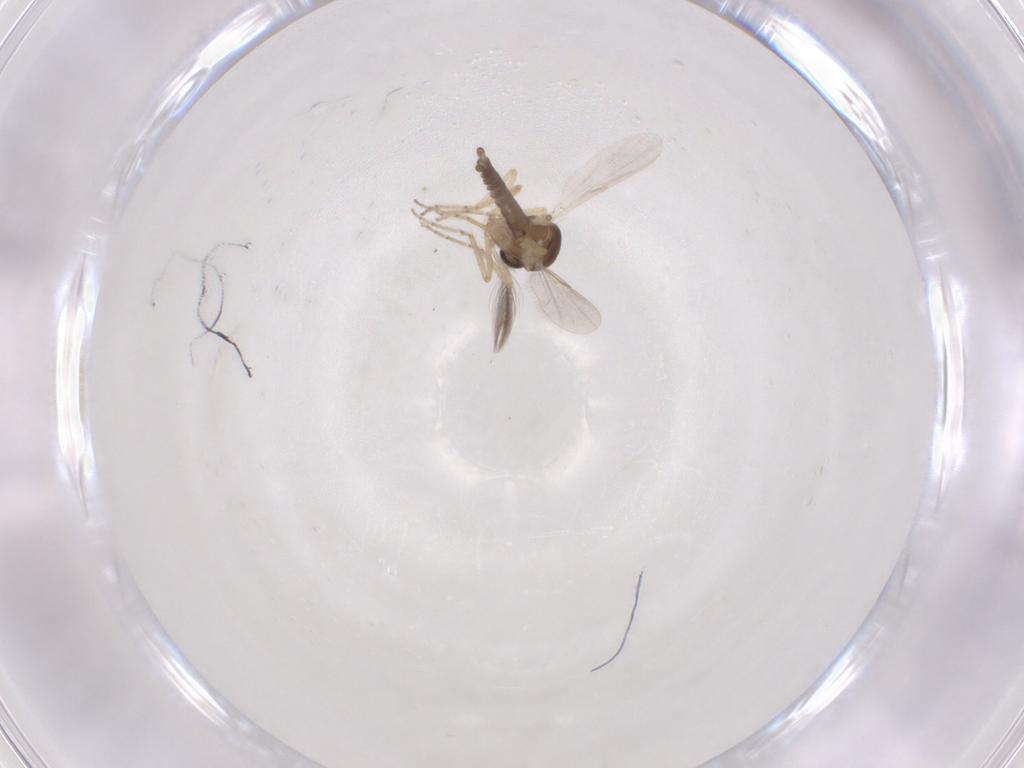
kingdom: Animalia
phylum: Arthropoda
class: Insecta
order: Diptera
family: Ceratopogonidae
